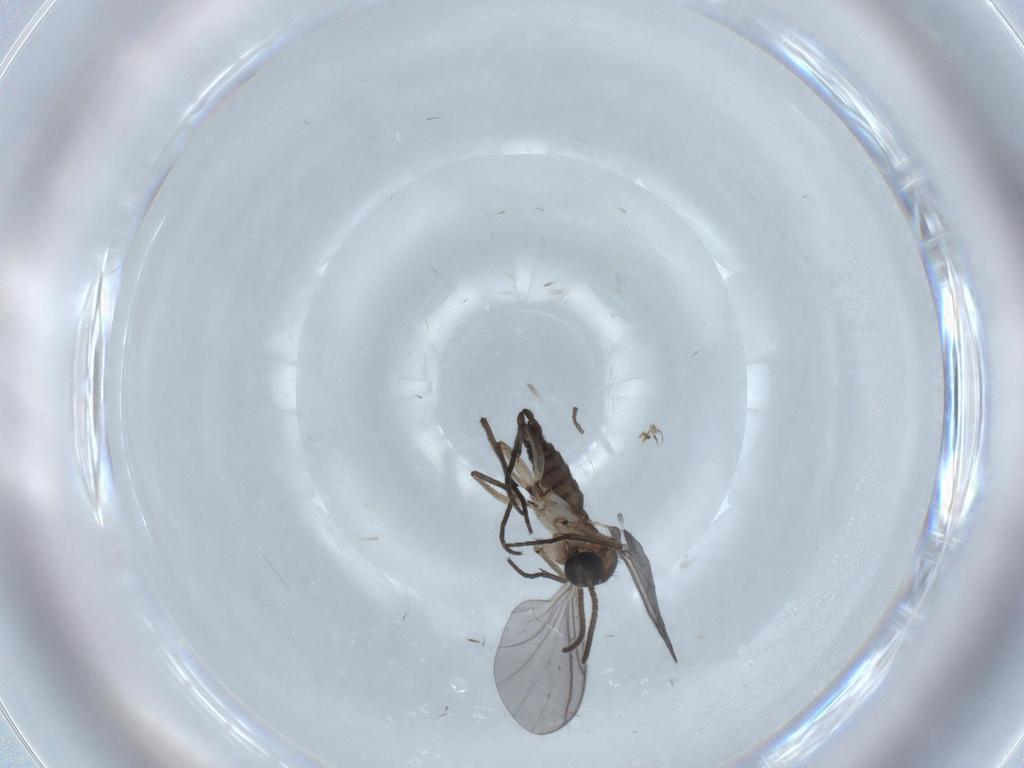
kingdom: Animalia
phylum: Arthropoda
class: Insecta
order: Diptera
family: Cecidomyiidae
